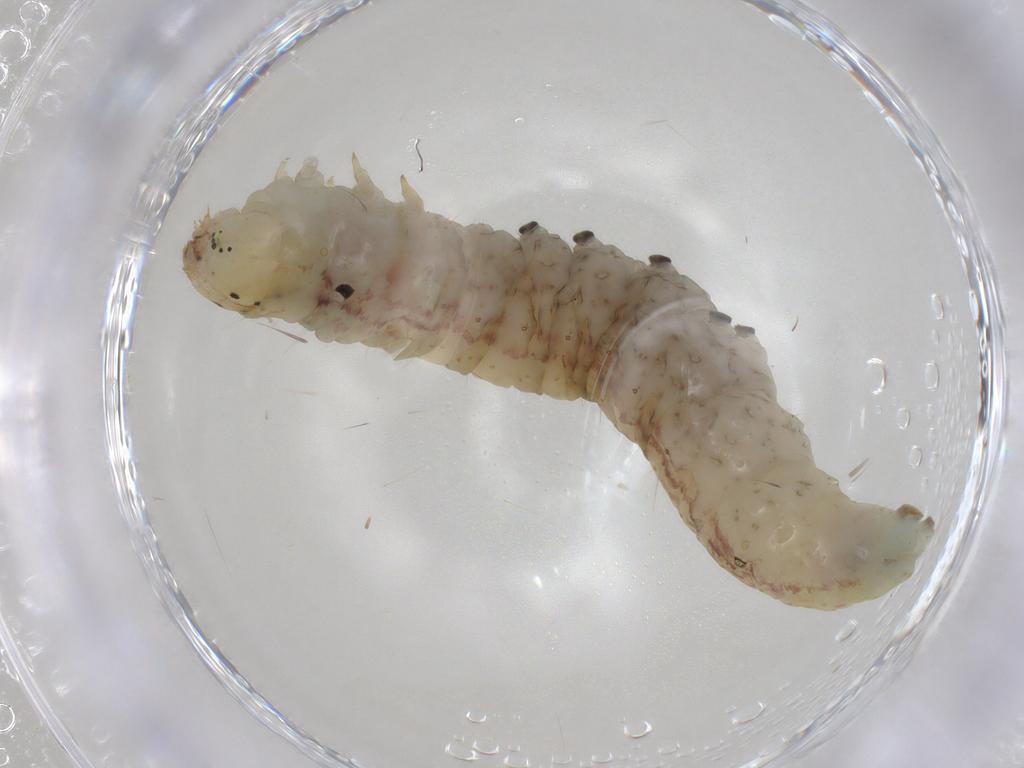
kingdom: Animalia
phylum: Arthropoda
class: Insecta
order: Lepidoptera
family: Pyralidae
